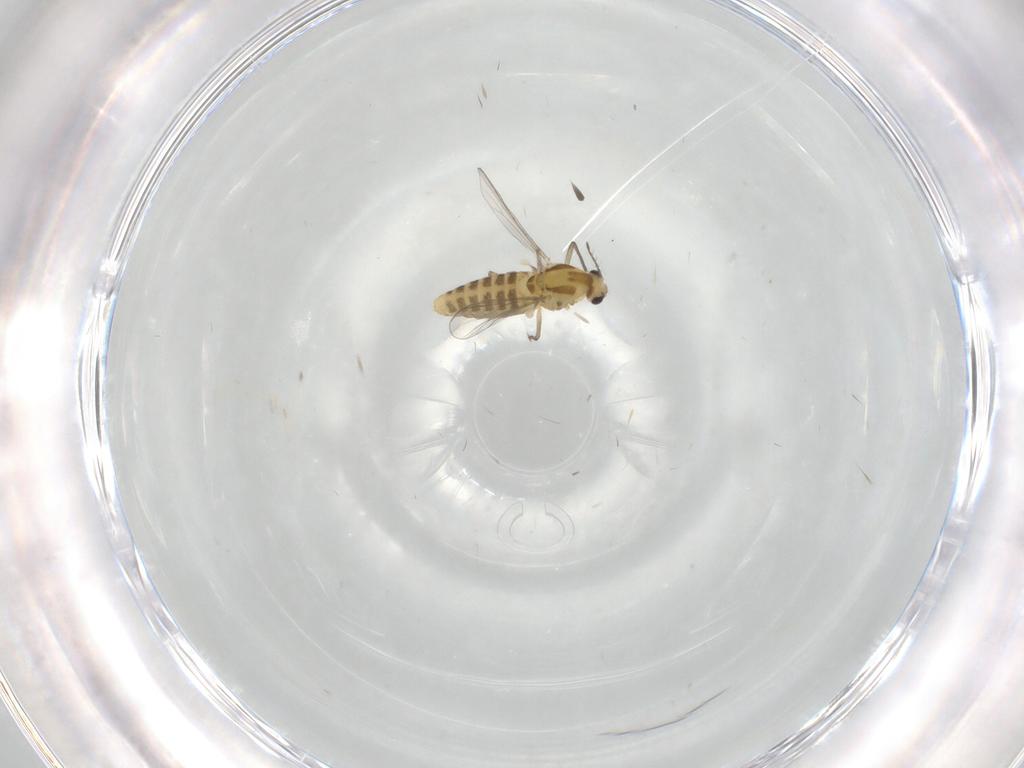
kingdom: Animalia
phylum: Arthropoda
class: Insecta
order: Diptera
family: Chironomidae
